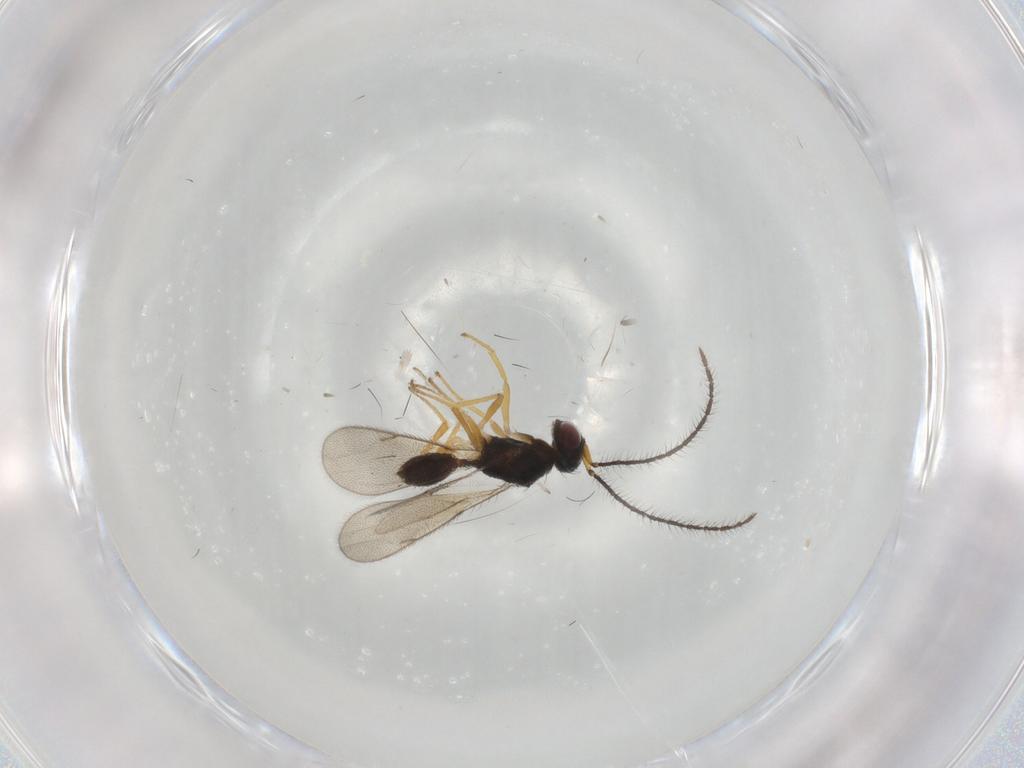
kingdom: Animalia
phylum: Arthropoda
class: Insecta
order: Hymenoptera
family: Diparidae
